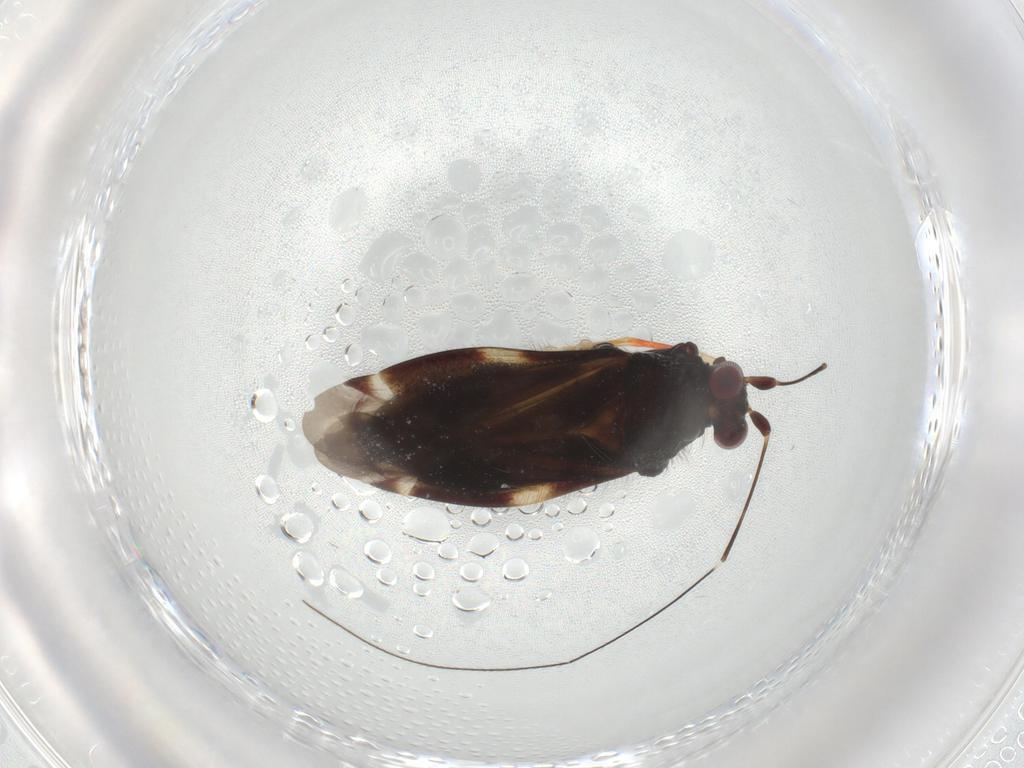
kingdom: Animalia
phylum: Arthropoda
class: Insecta
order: Hemiptera
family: Miridae
